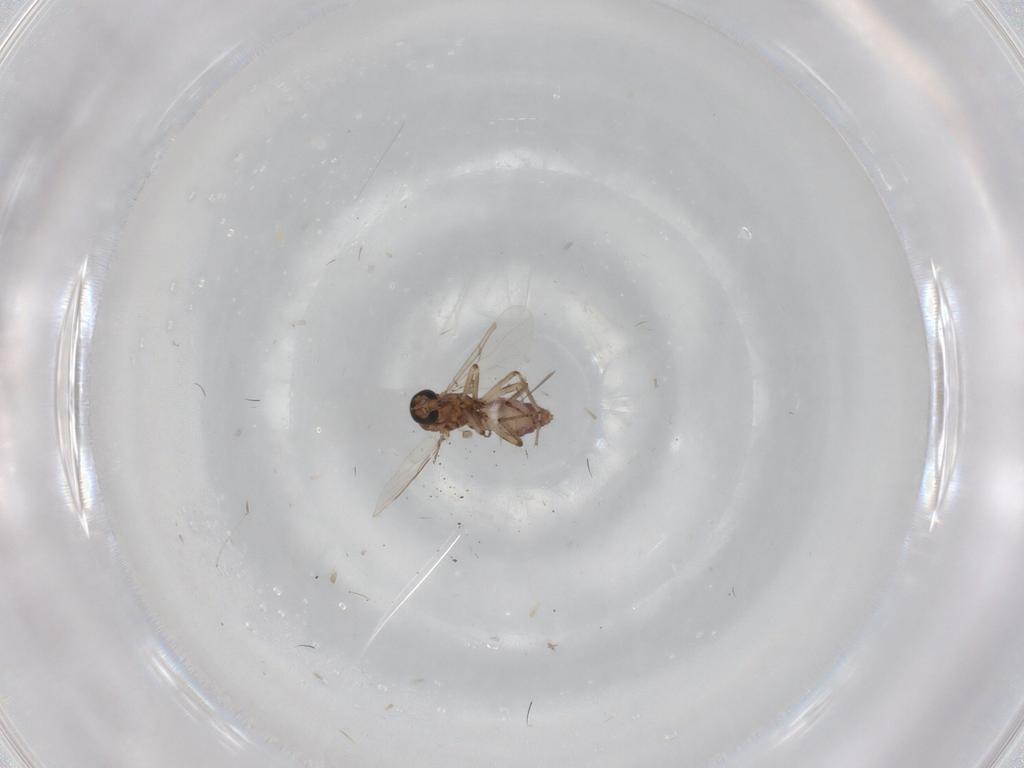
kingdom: Animalia
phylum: Arthropoda
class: Insecta
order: Diptera
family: Ceratopogonidae
